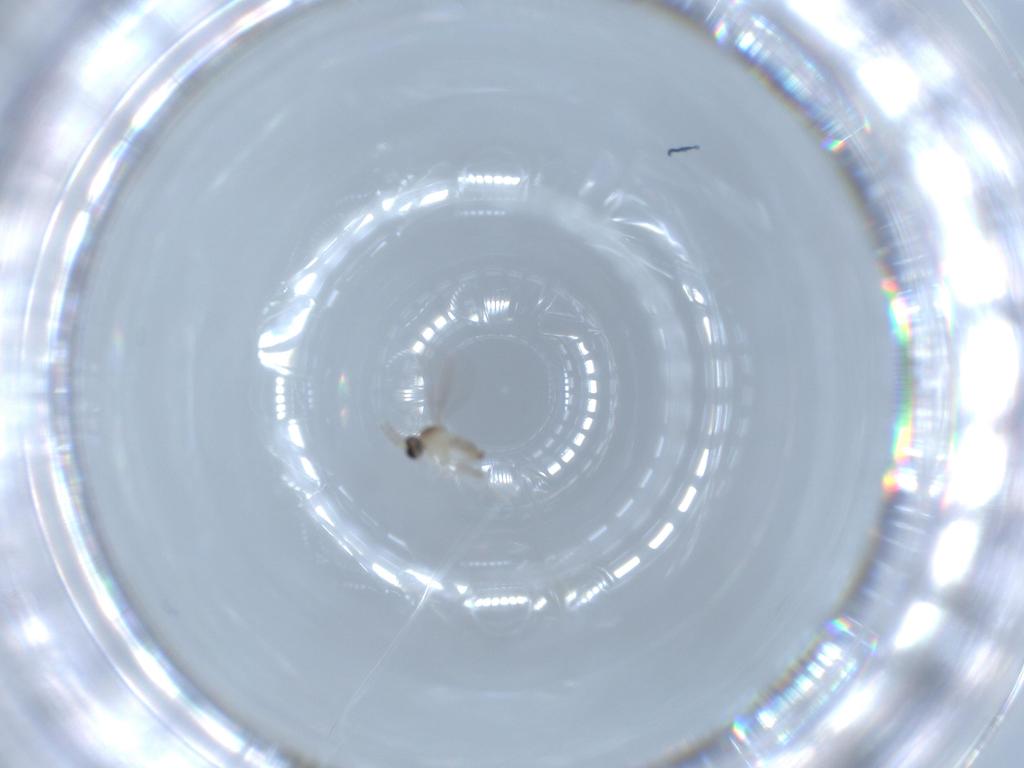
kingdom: Animalia
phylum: Arthropoda
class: Insecta
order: Diptera
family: Cecidomyiidae
